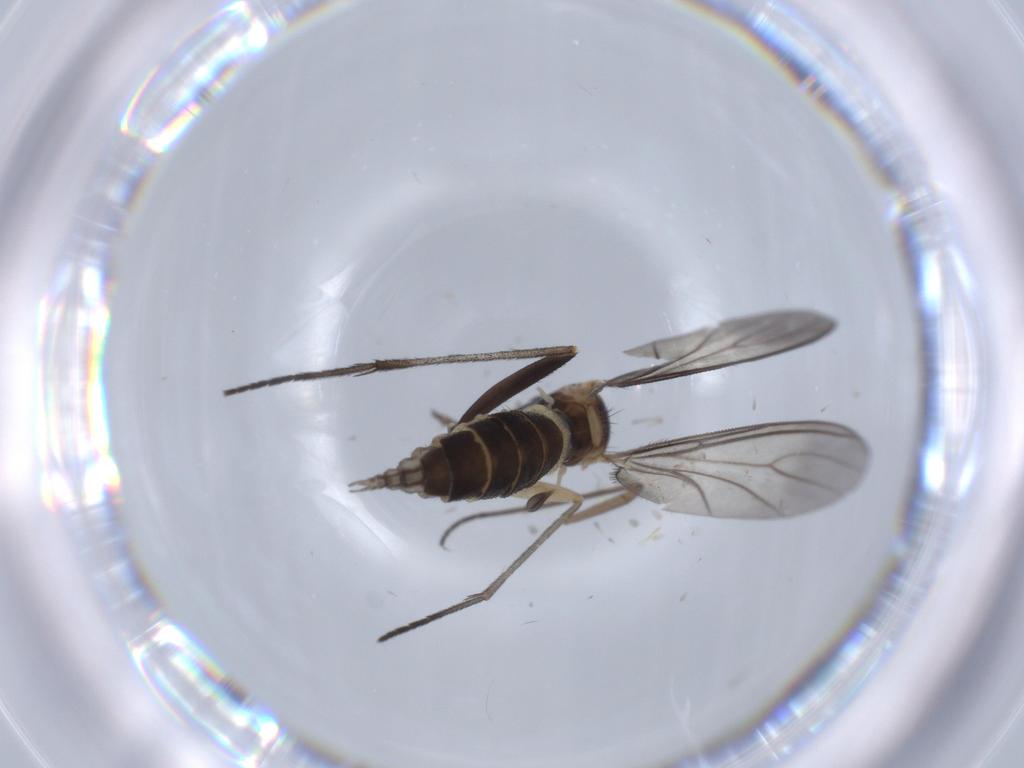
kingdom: Animalia
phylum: Arthropoda
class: Insecta
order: Diptera
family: Sciaridae
